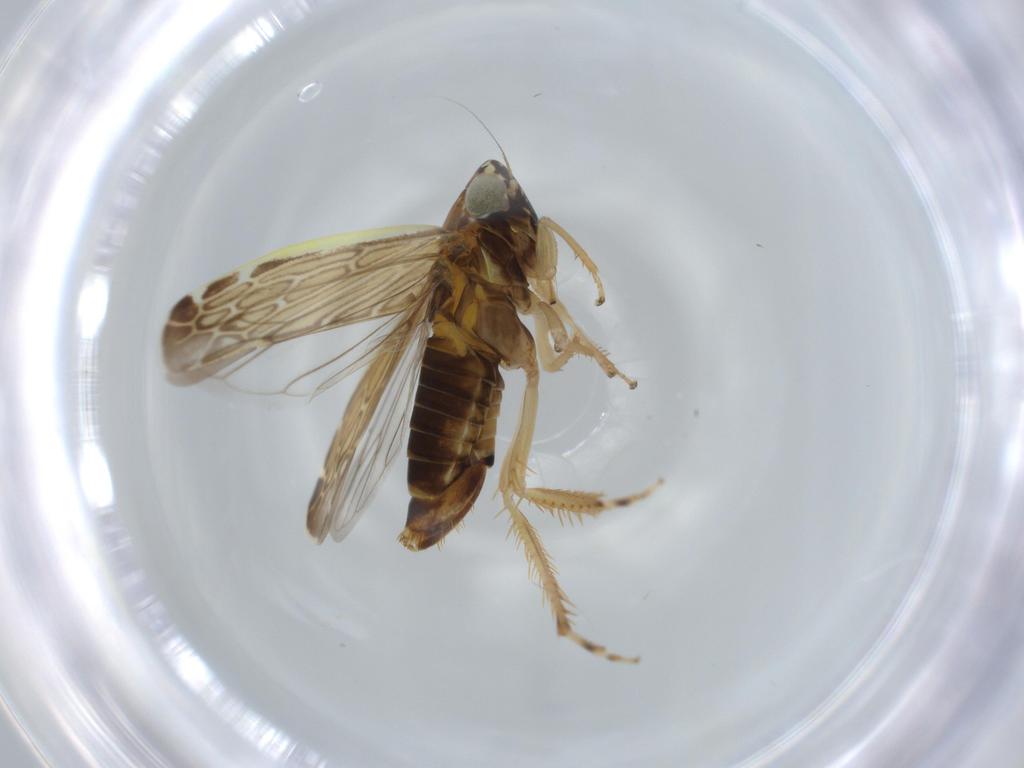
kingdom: Animalia
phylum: Arthropoda
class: Insecta
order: Hemiptera
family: Cicadellidae
